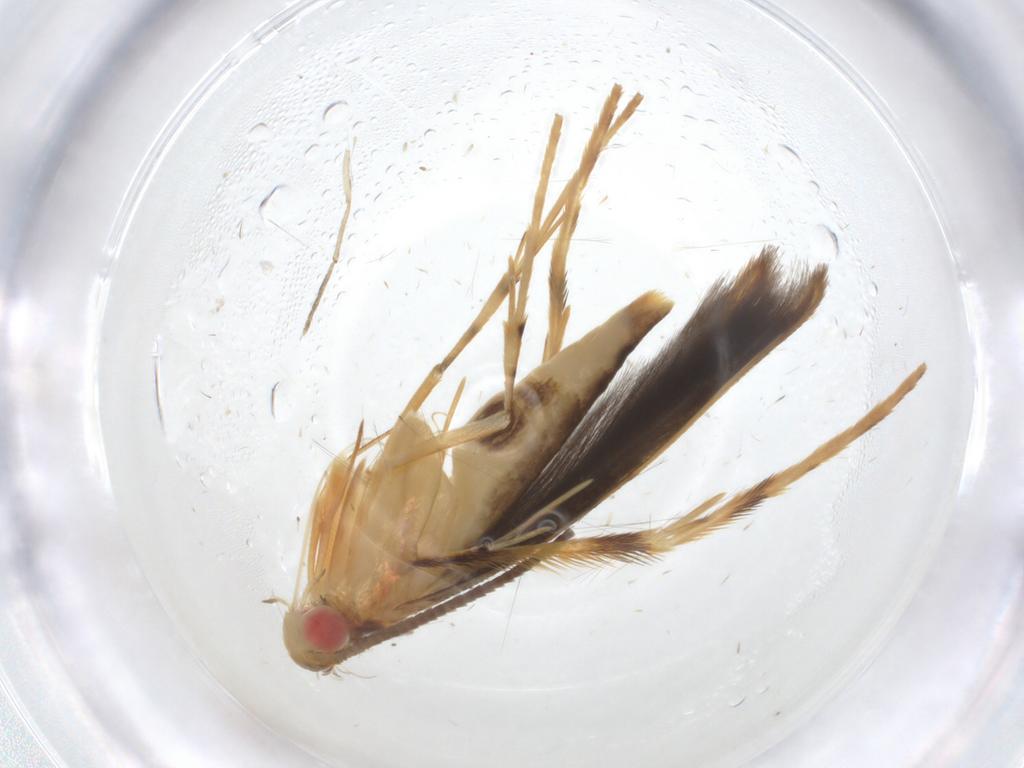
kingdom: Animalia
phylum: Arthropoda
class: Insecta
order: Lepidoptera
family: Gracillariidae
